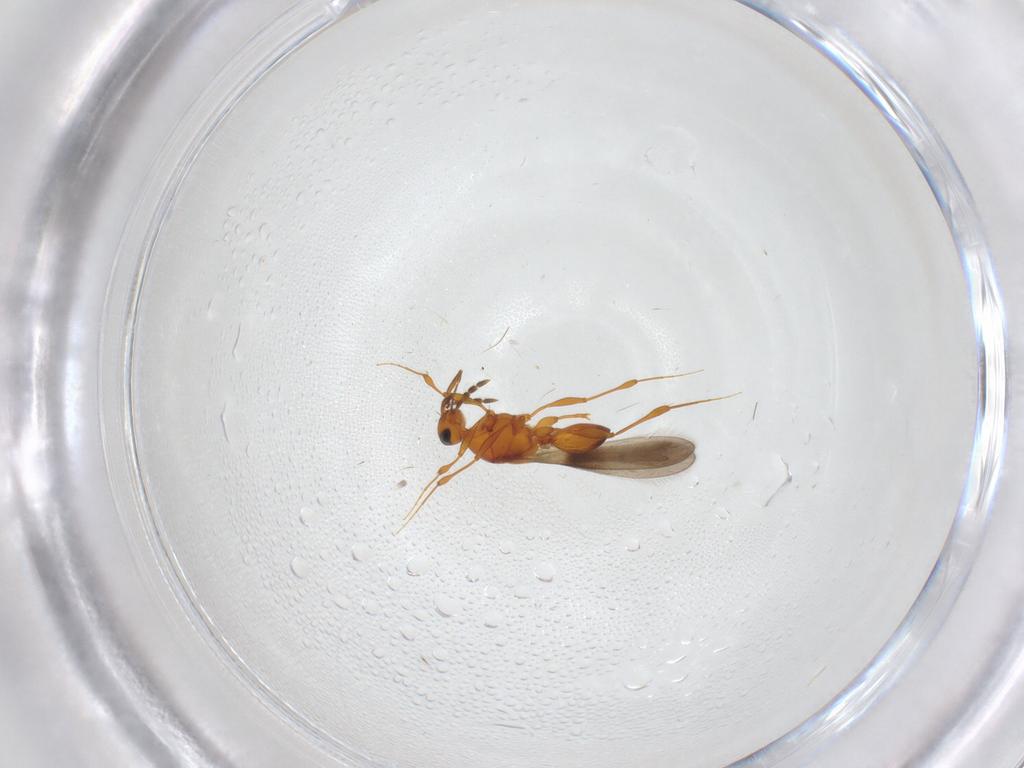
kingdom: Animalia
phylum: Arthropoda
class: Insecta
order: Hymenoptera
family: Platygastridae
